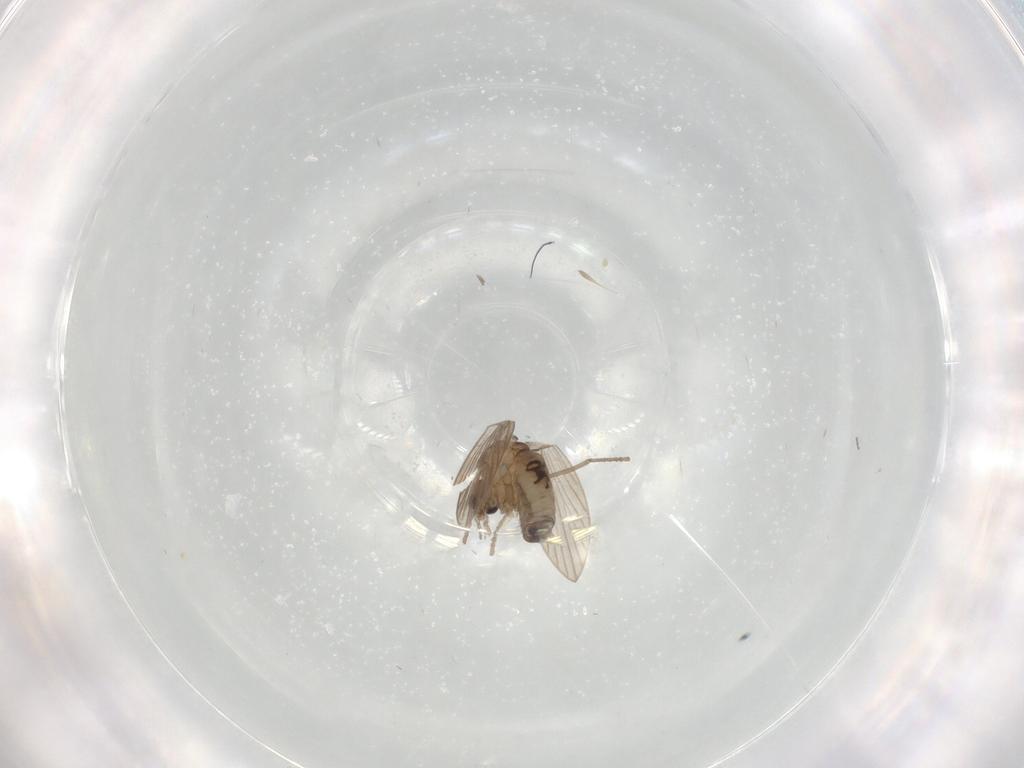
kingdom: Animalia
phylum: Arthropoda
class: Insecta
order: Diptera
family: Psychodidae
